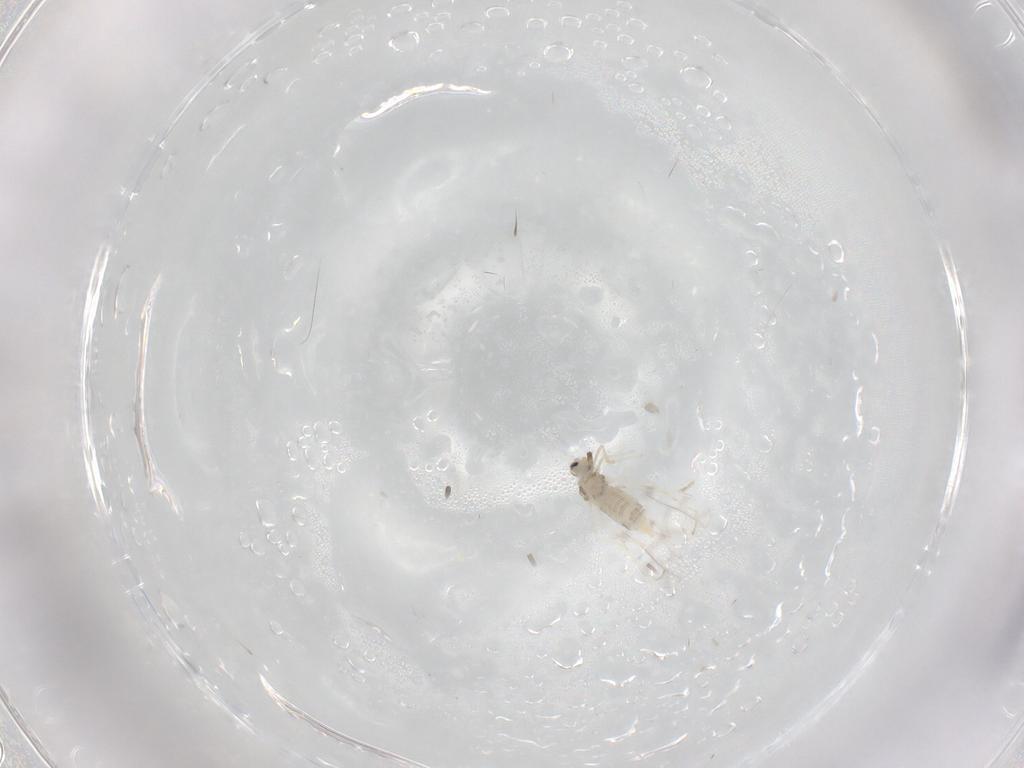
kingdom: Animalia
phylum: Arthropoda
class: Insecta
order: Diptera
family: Cecidomyiidae
